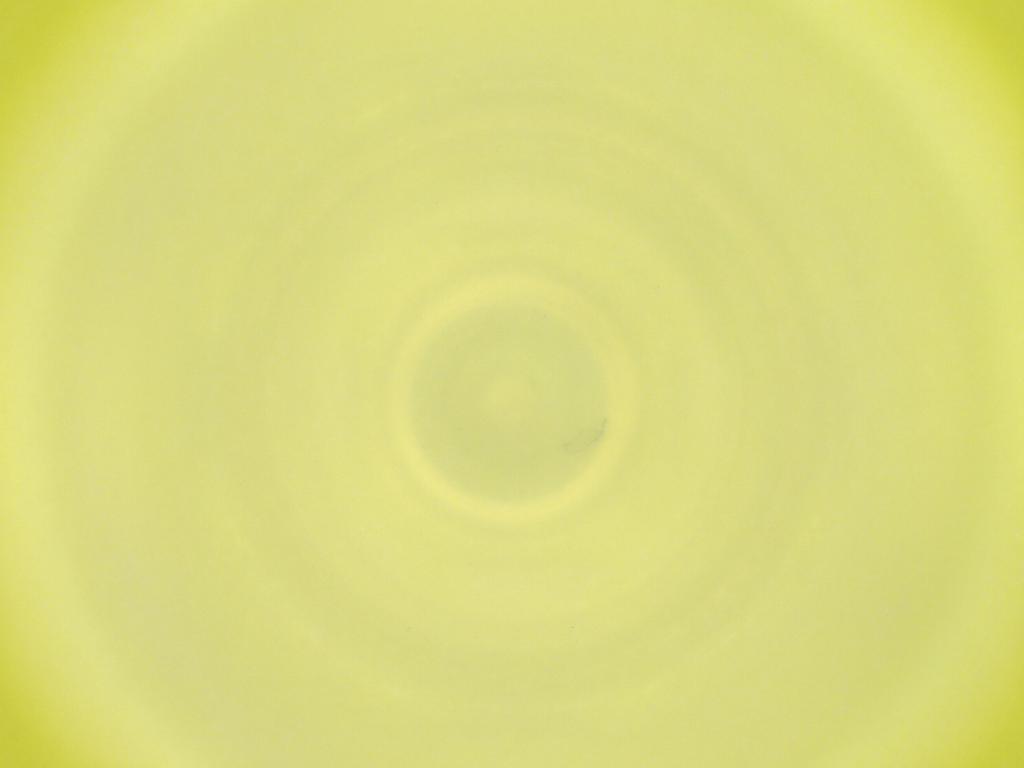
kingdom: Animalia
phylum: Arthropoda
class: Insecta
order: Diptera
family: Cecidomyiidae
